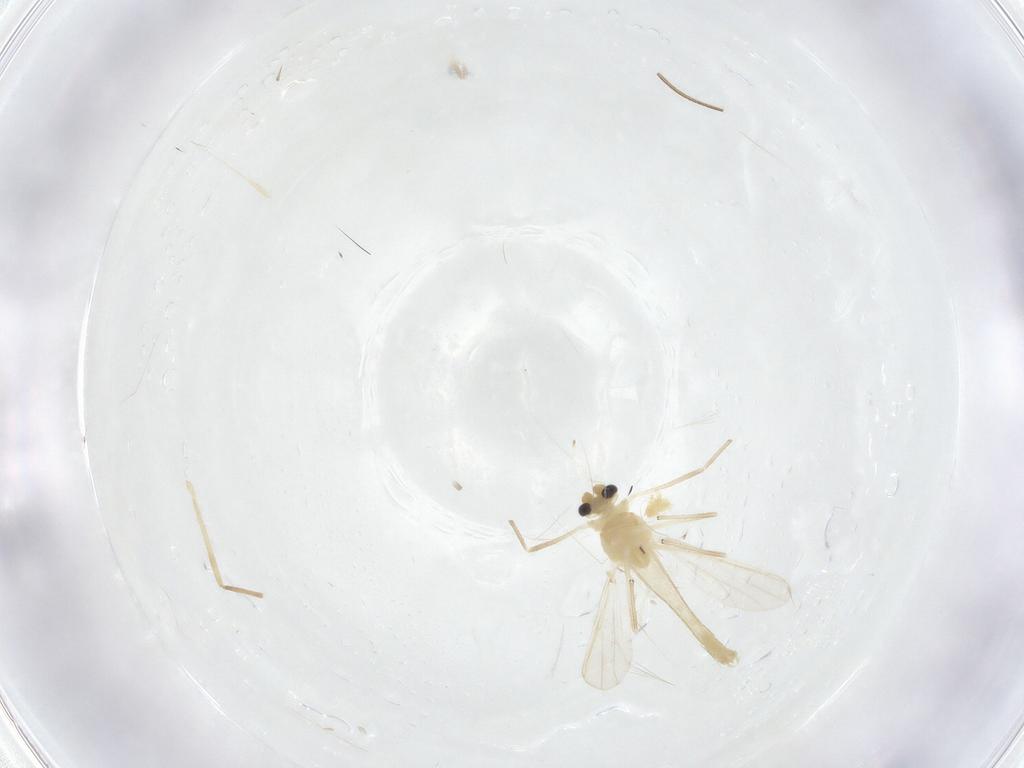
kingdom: Animalia
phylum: Arthropoda
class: Insecta
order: Diptera
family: Chironomidae
